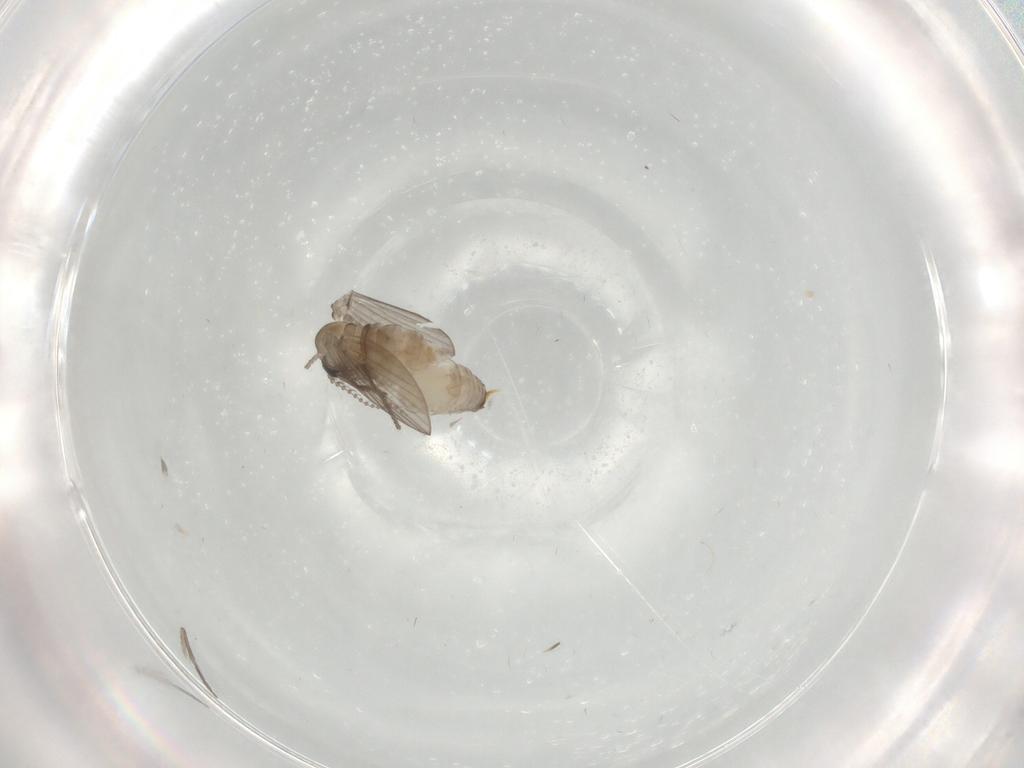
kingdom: Animalia
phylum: Arthropoda
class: Insecta
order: Diptera
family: Psychodidae
